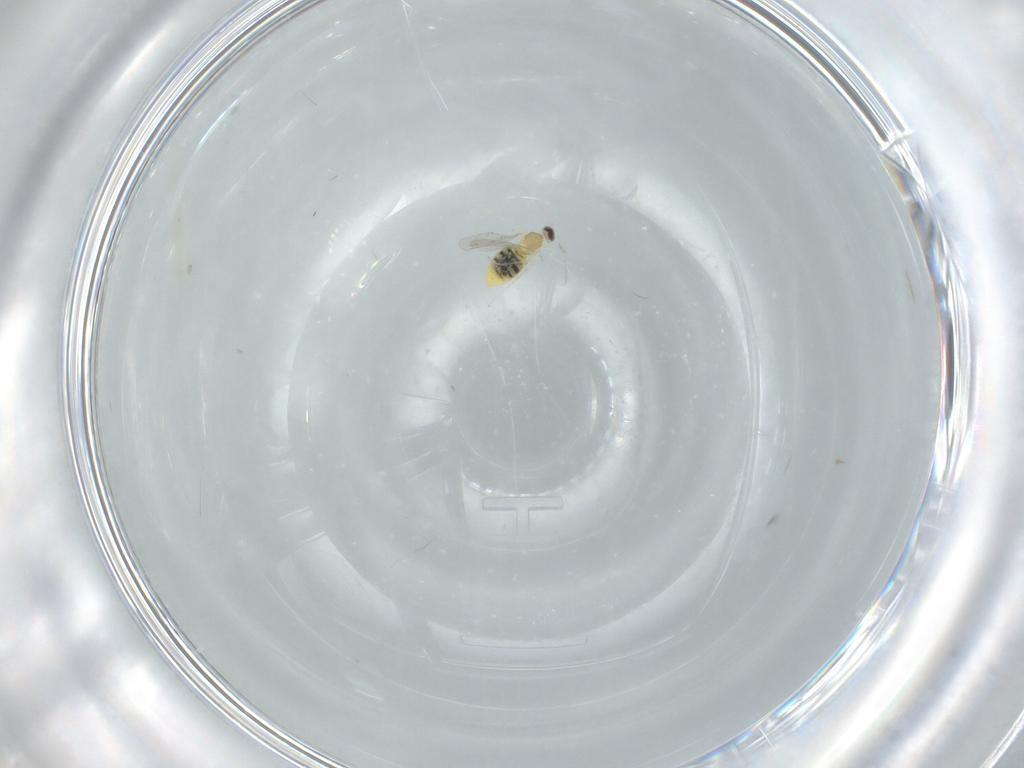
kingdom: Animalia
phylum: Arthropoda
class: Insecta
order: Diptera
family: Cecidomyiidae
